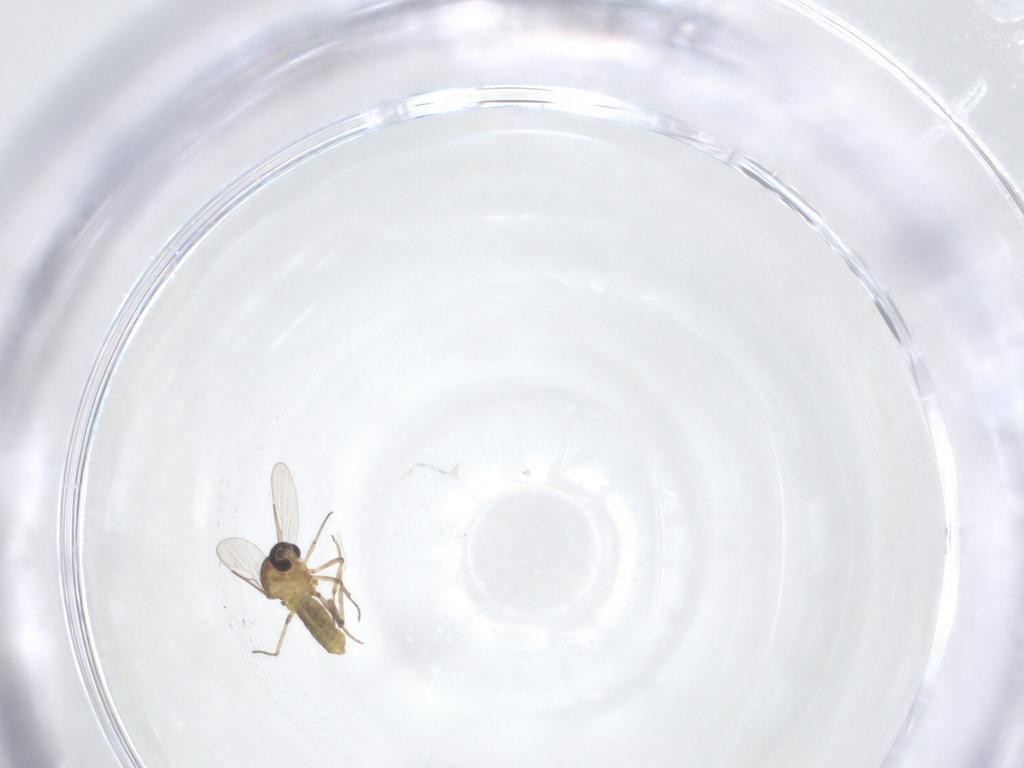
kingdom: Animalia
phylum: Arthropoda
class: Insecta
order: Diptera
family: Ceratopogonidae
